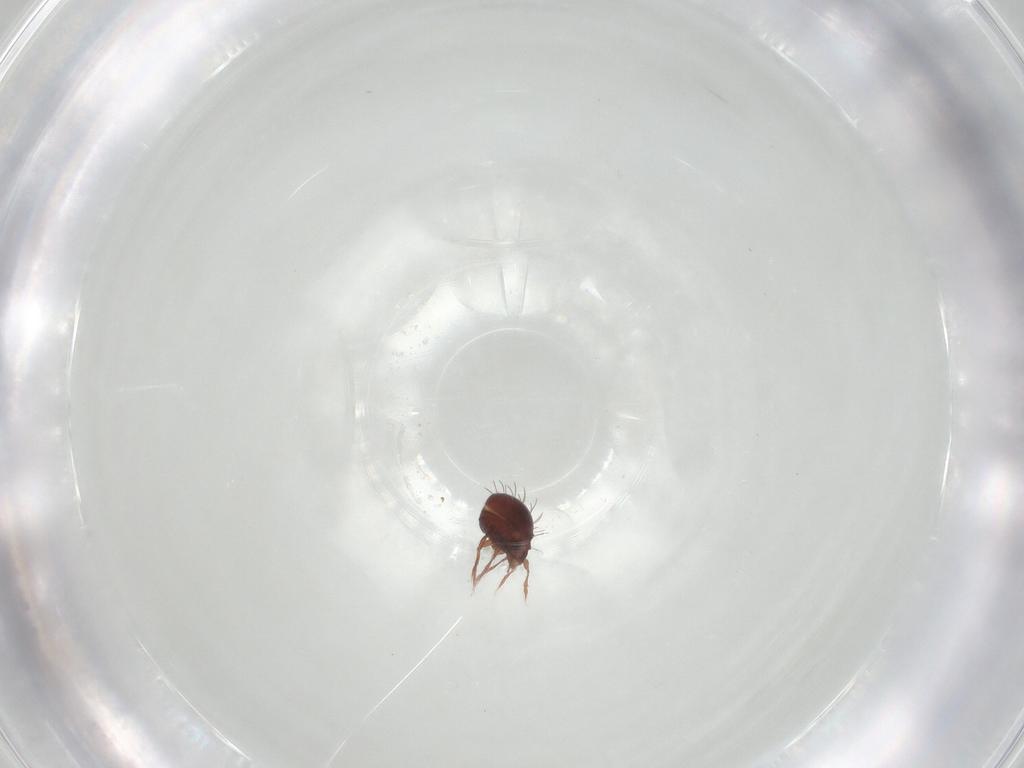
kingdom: Animalia
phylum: Arthropoda
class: Arachnida
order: Sarcoptiformes
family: Caloppiidae
